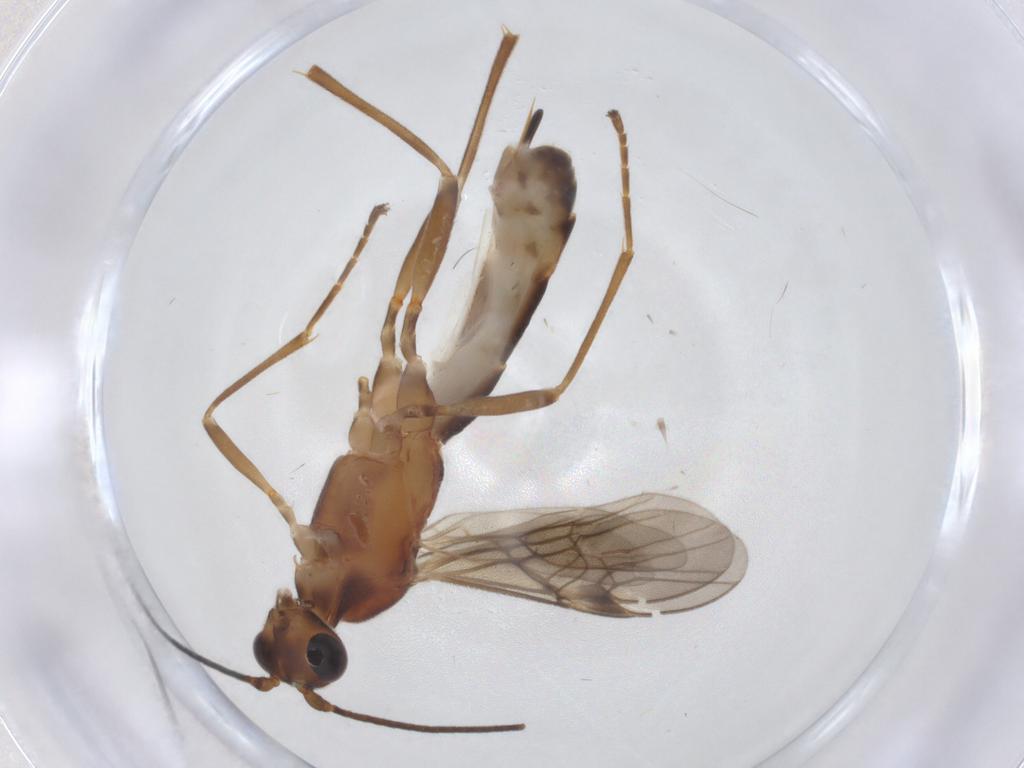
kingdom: Animalia
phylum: Arthropoda
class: Insecta
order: Hymenoptera
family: Braconidae
